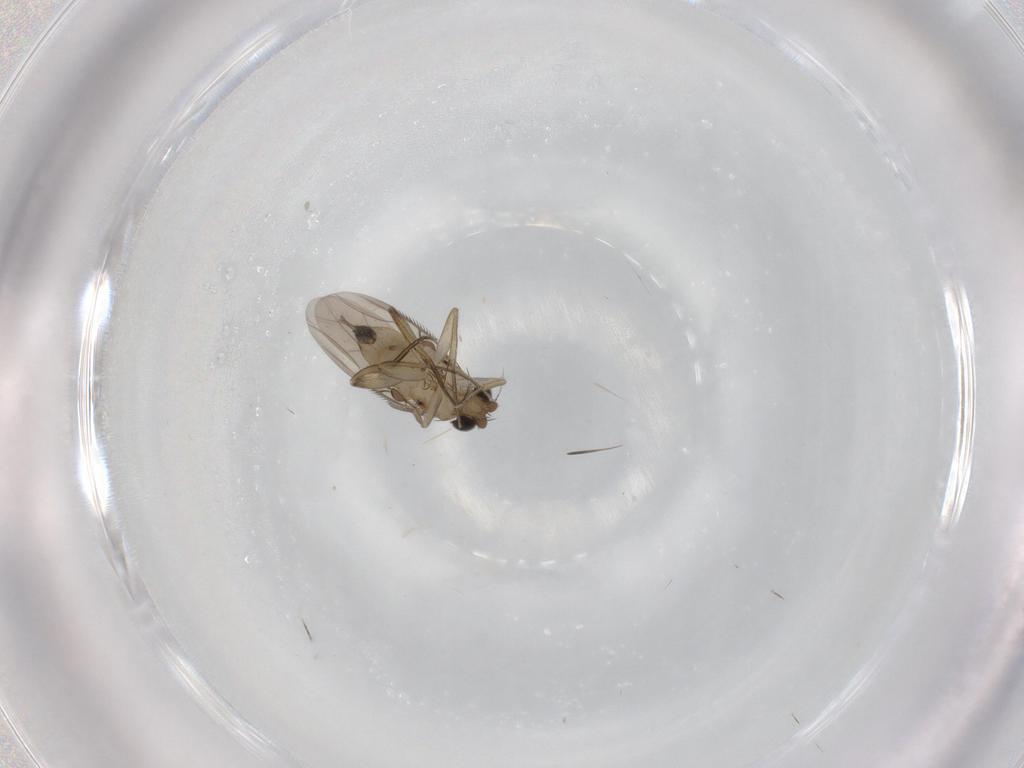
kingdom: Animalia
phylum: Arthropoda
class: Insecta
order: Diptera
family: Phoridae
